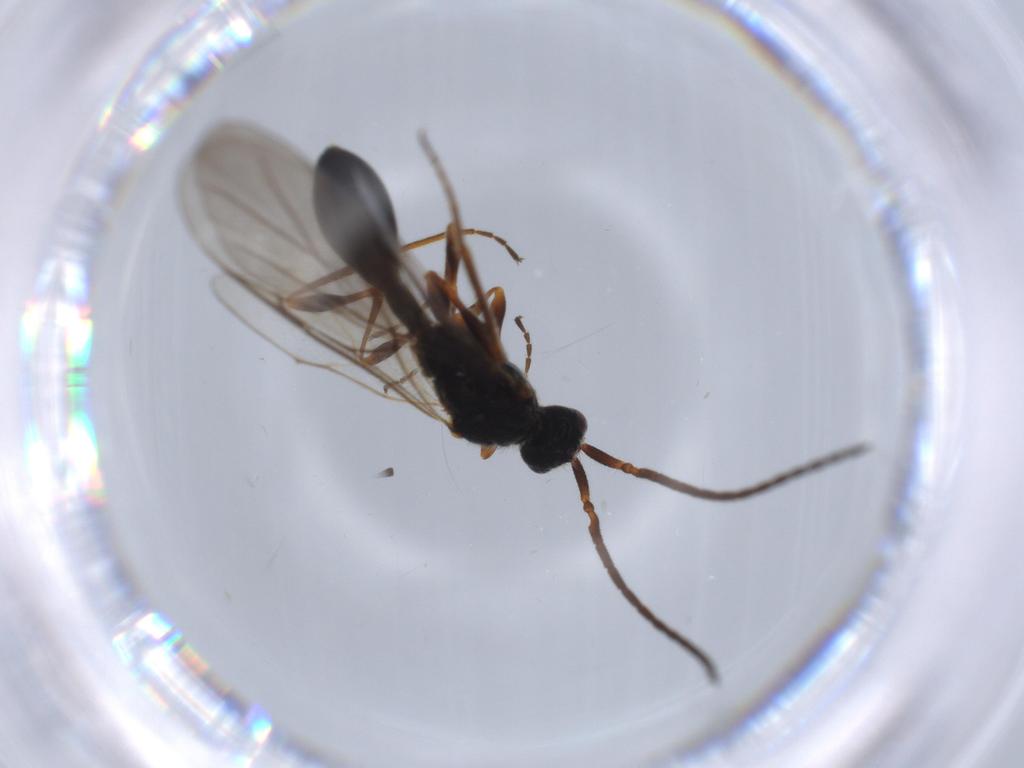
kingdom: Animalia
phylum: Arthropoda
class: Insecta
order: Hymenoptera
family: Diapriidae
